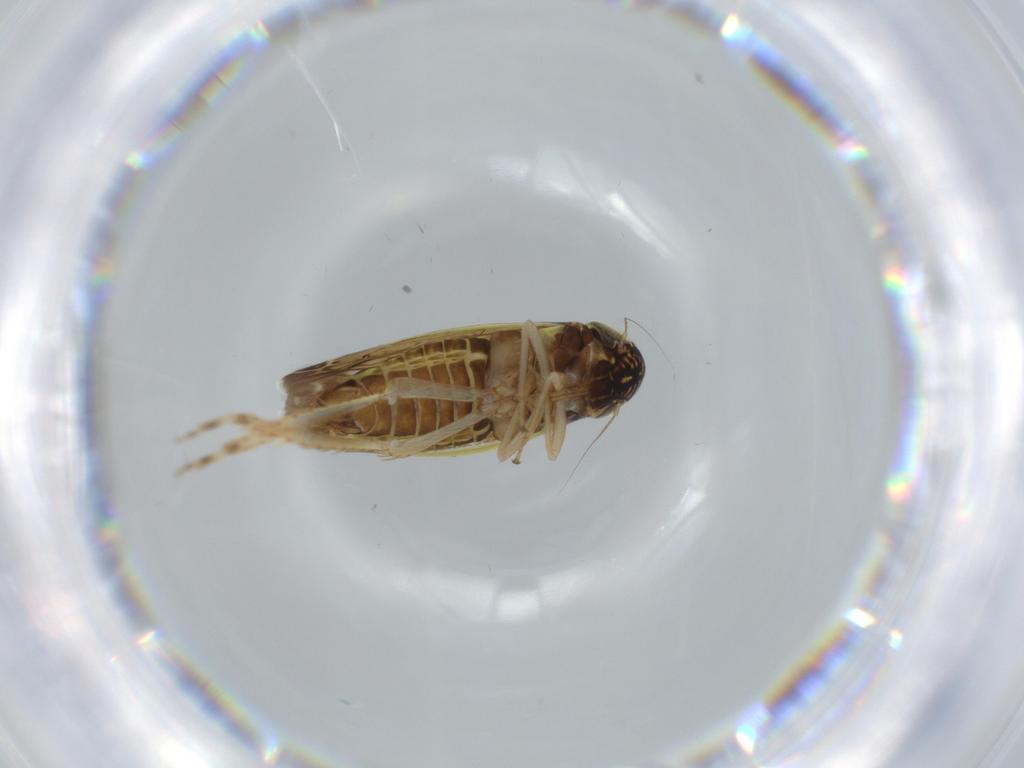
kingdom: Animalia
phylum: Arthropoda
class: Insecta
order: Hemiptera
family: Cicadellidae
